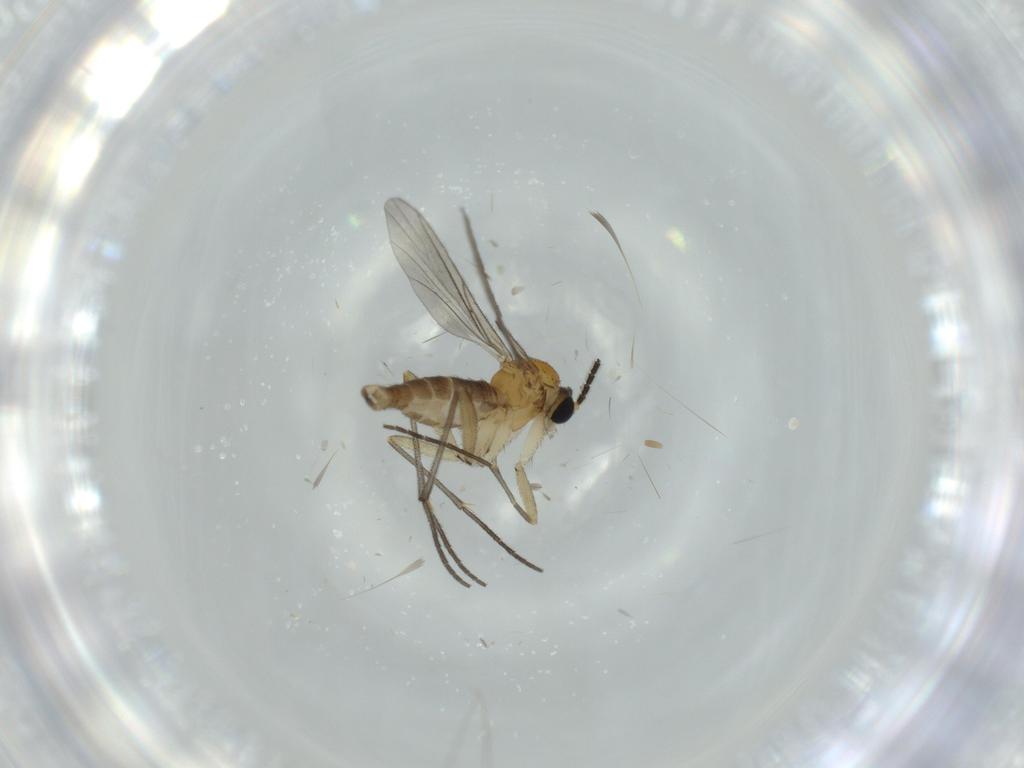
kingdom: Animalia
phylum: Arthropoda
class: Insecta
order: Diptera
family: Sciaridae
